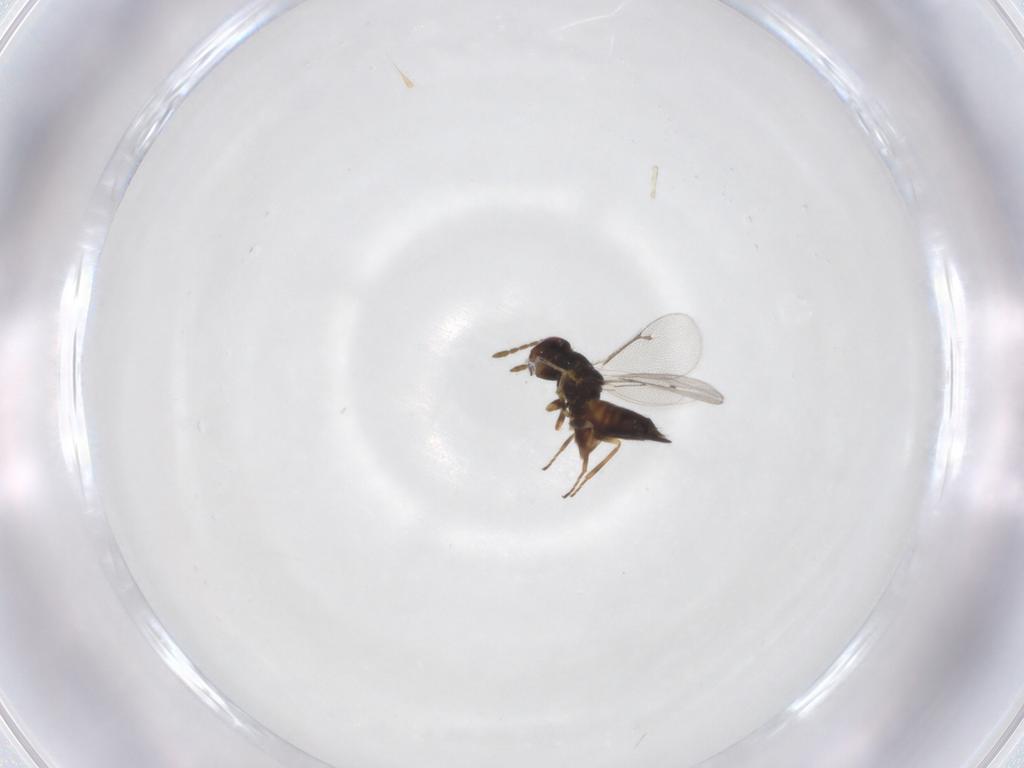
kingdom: Animalia
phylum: Arthropoda
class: Insecta
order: Hymenoptera
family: Eulophidae
